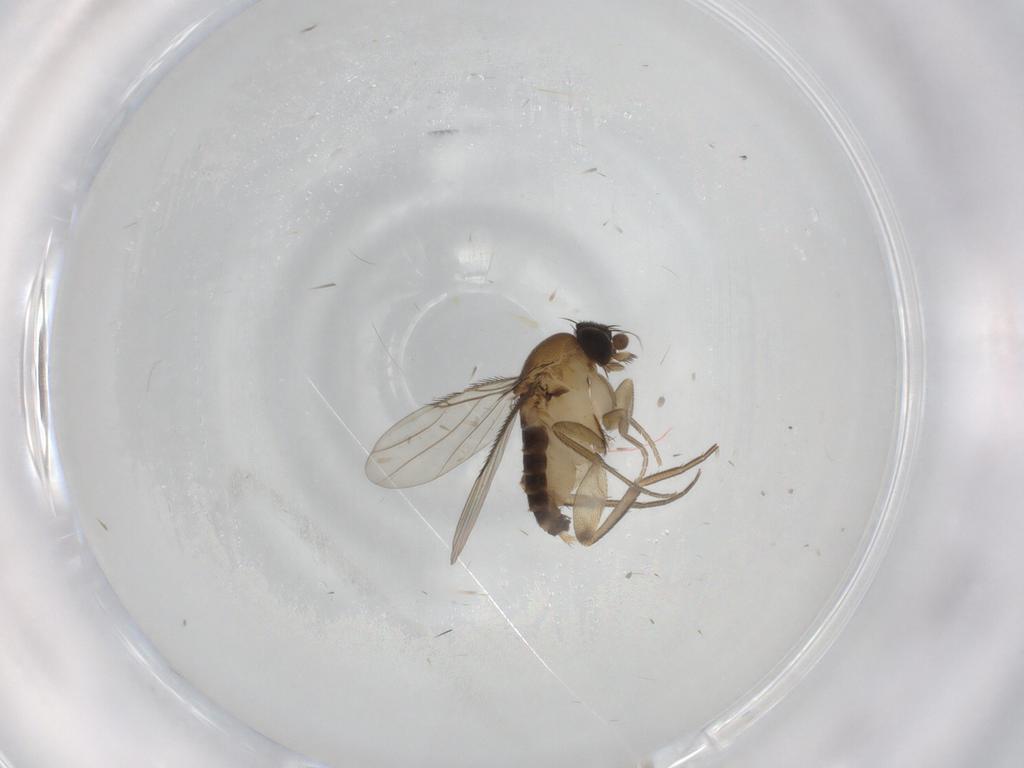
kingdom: Animalia
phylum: Arthropoda
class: Insecta
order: Diptera
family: Phoridae
